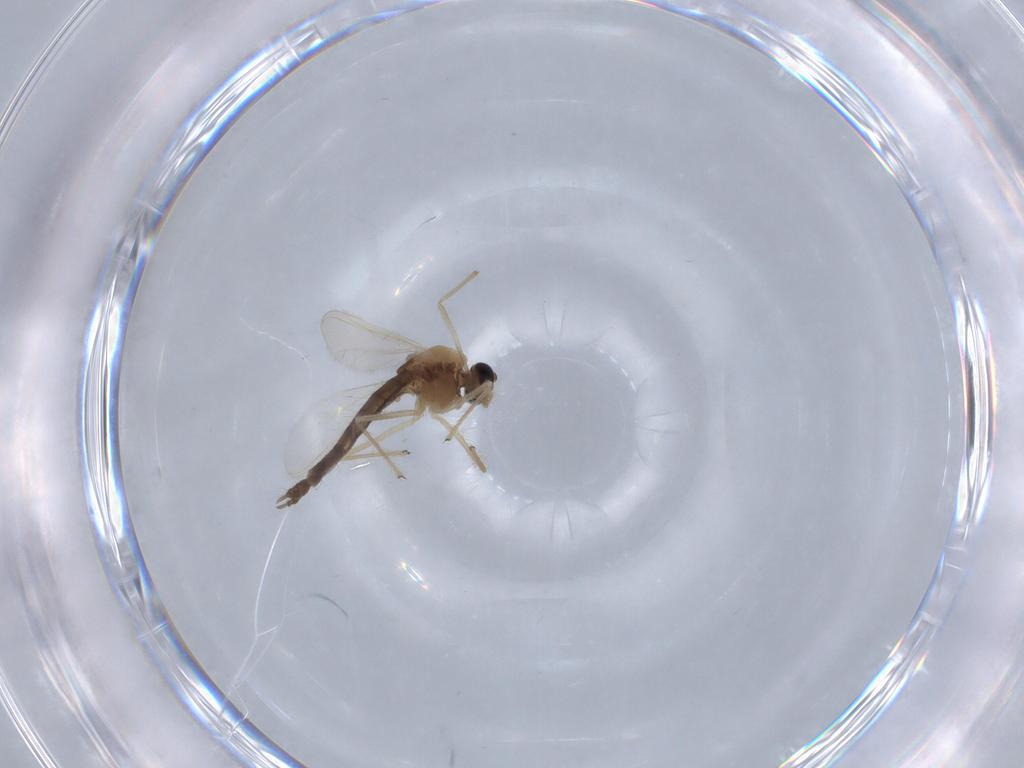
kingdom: Animalia
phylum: Arthropoda
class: Insecta
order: Diptera
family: Chironomidae
